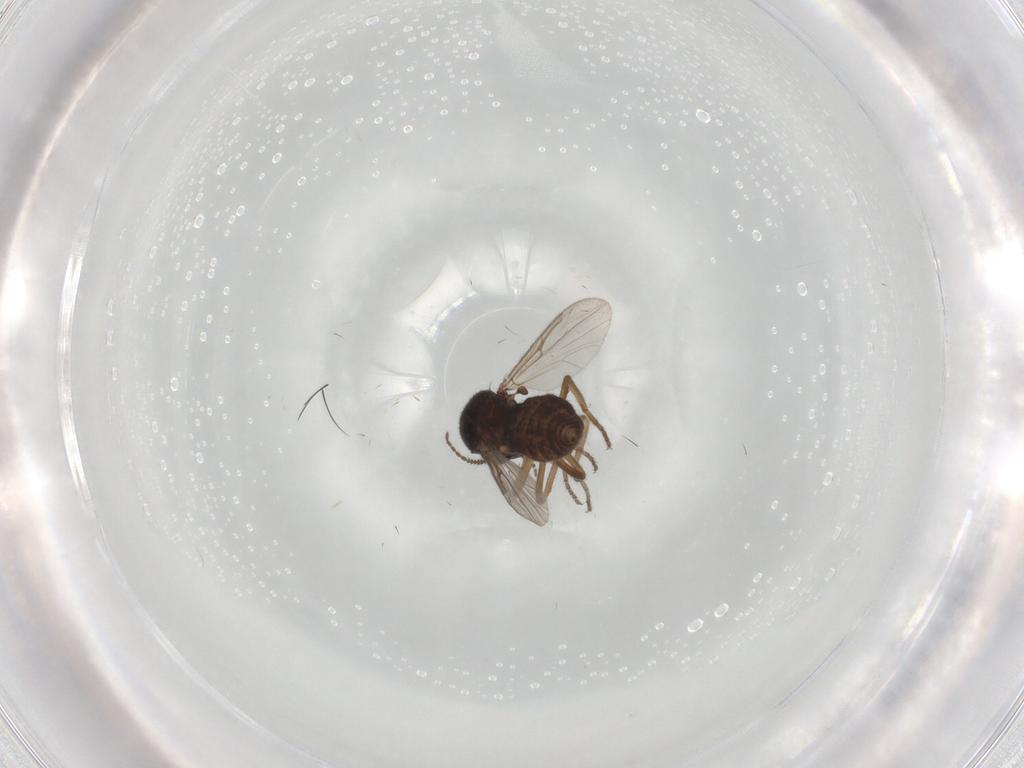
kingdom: Animalia
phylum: Arthropoda
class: Insecta
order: Diptera
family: Ceratopogonidae
